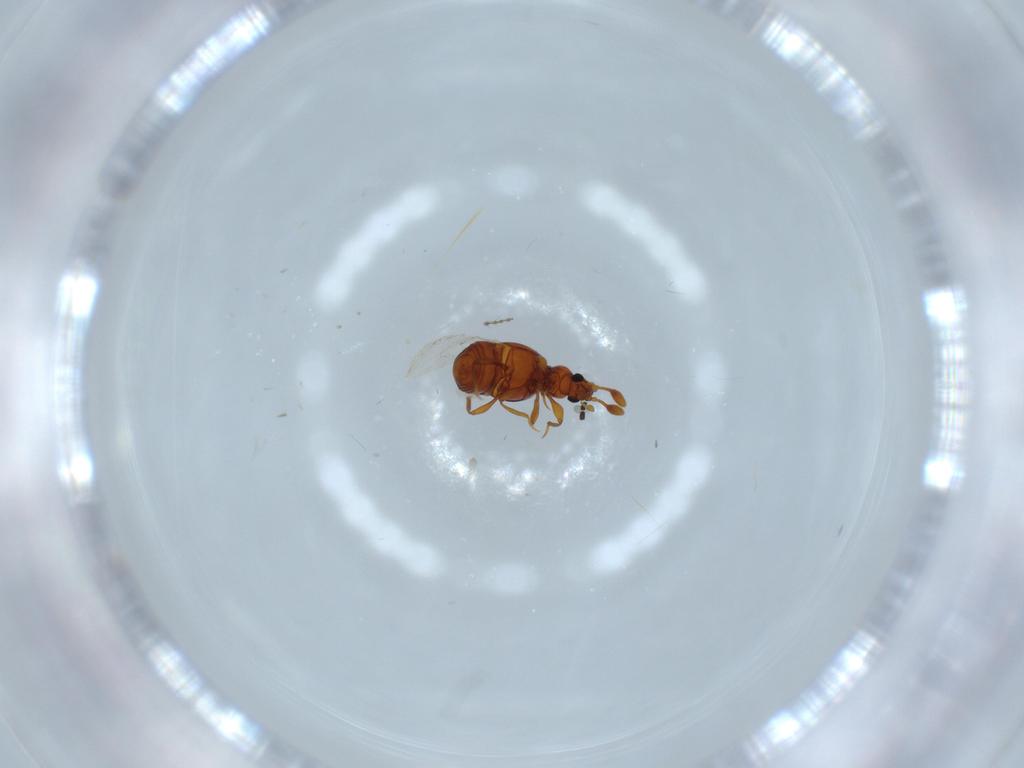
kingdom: Animalia
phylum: Arthropoda
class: Insecta
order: Coleoptera
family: Staphylinidae
